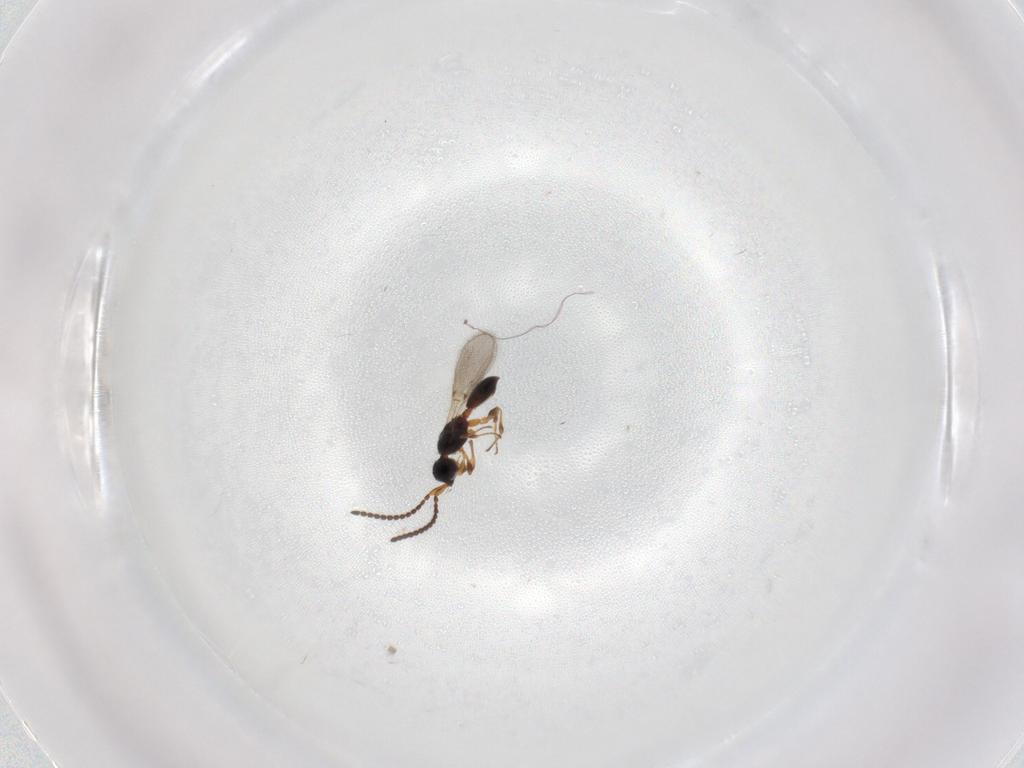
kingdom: Animalia
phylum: Arthropoda
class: Insecta
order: Hymenoptera
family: Diapriidae
